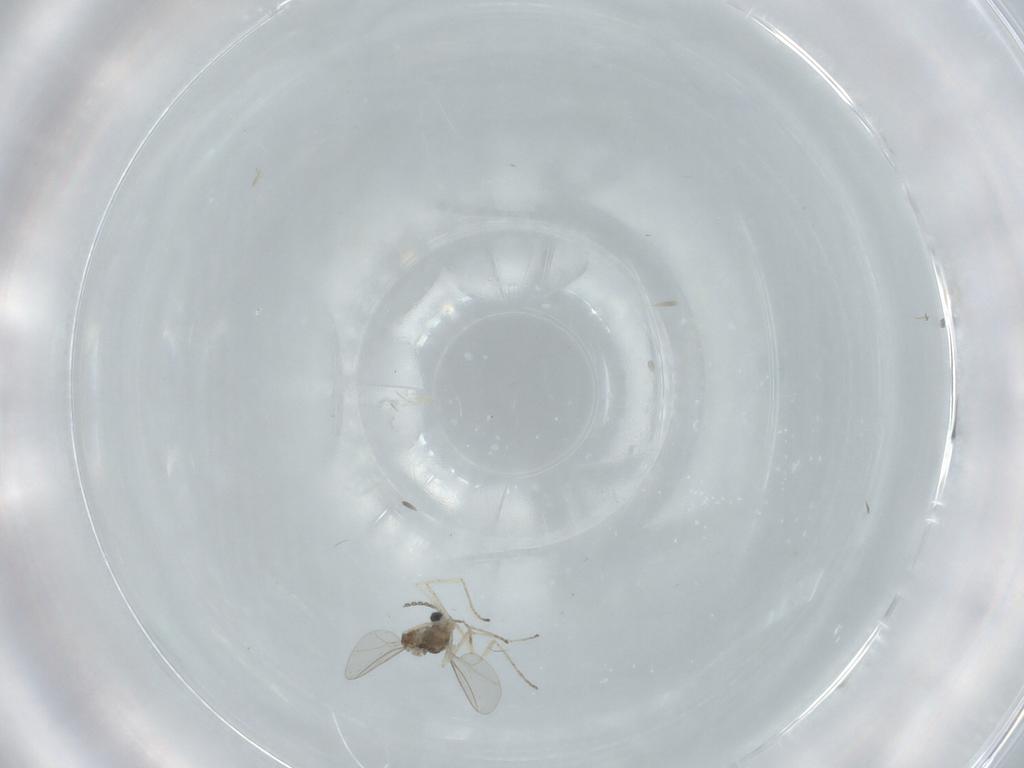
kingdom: Animalia
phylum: Arthropoda
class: Insecta
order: Diptera
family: Cecidomyiidae
